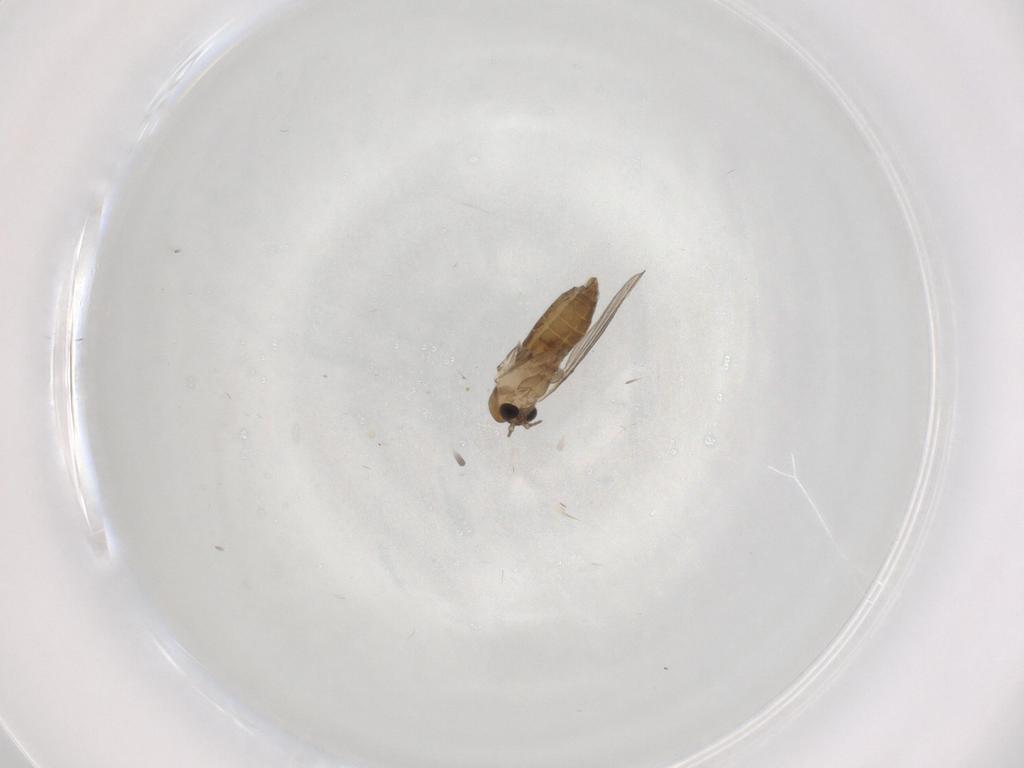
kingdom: Animalia
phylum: Arthropoda
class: Insecta
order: Diptera
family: Psychodidae
